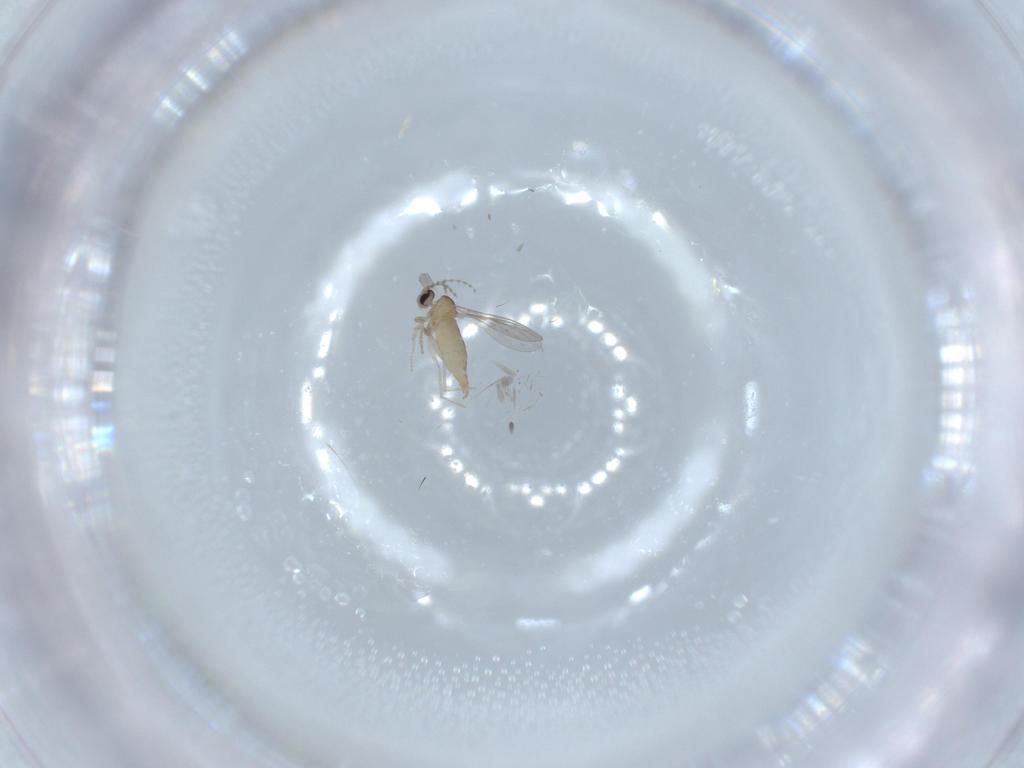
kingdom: Animalia
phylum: Arthropoda
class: Insecta
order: Diptera
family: Cecidomyiidae
